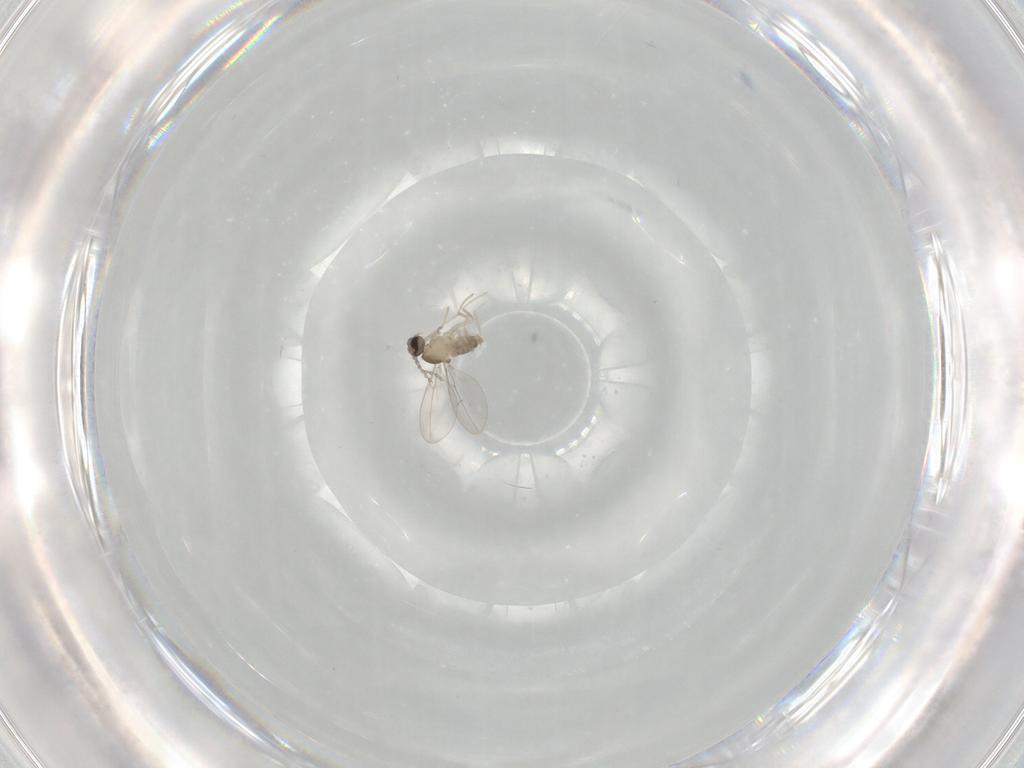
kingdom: Animalia
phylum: Arthropoda
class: Insecta
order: Diptera
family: Cecidomyiidae
